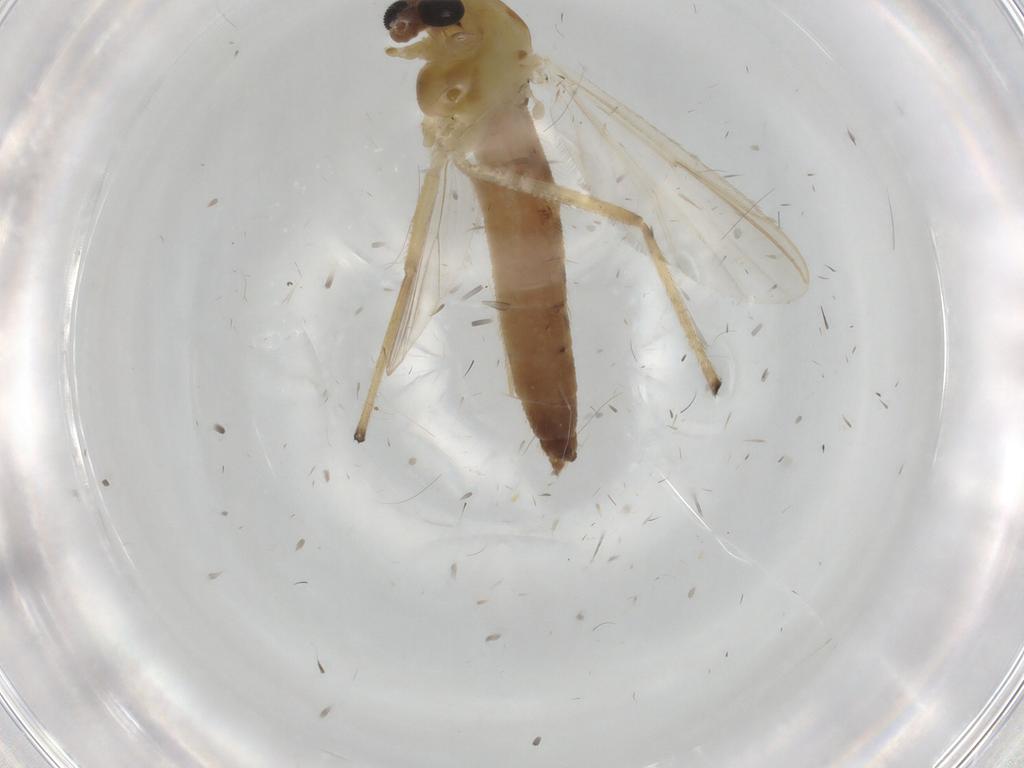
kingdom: Animalia
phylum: Arthropoda
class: Insecta
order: Diptera
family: Chironomidae
